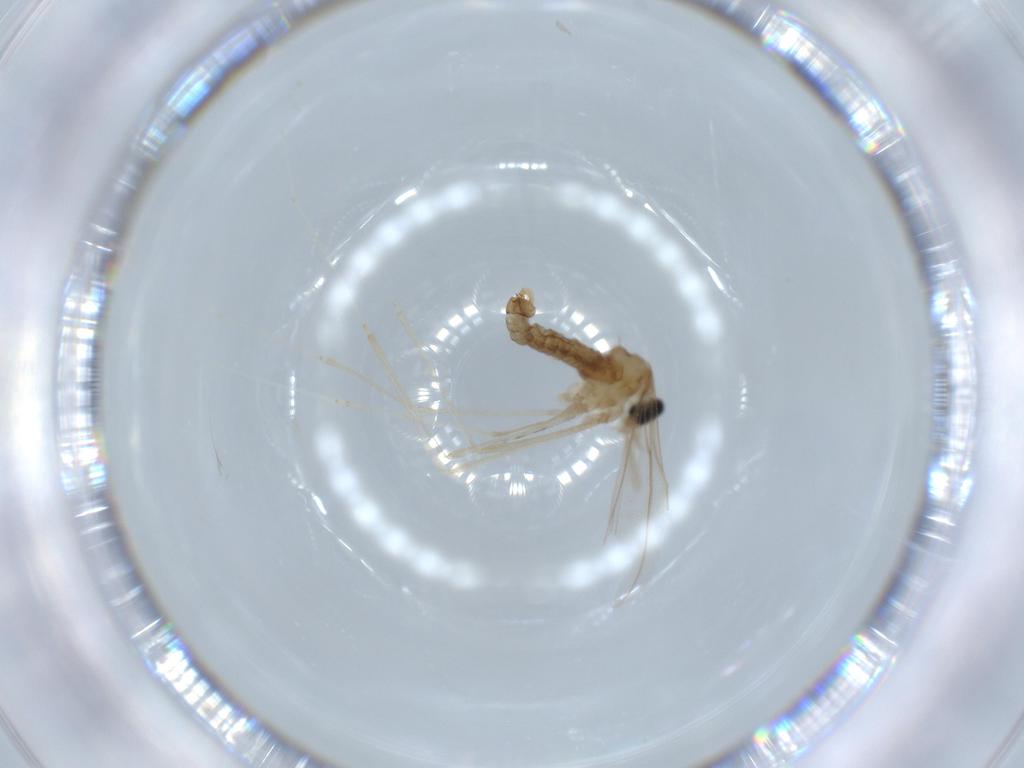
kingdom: Animalia
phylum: Arthropoda
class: Insecta
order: Diptera
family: Cecidomyiidae
